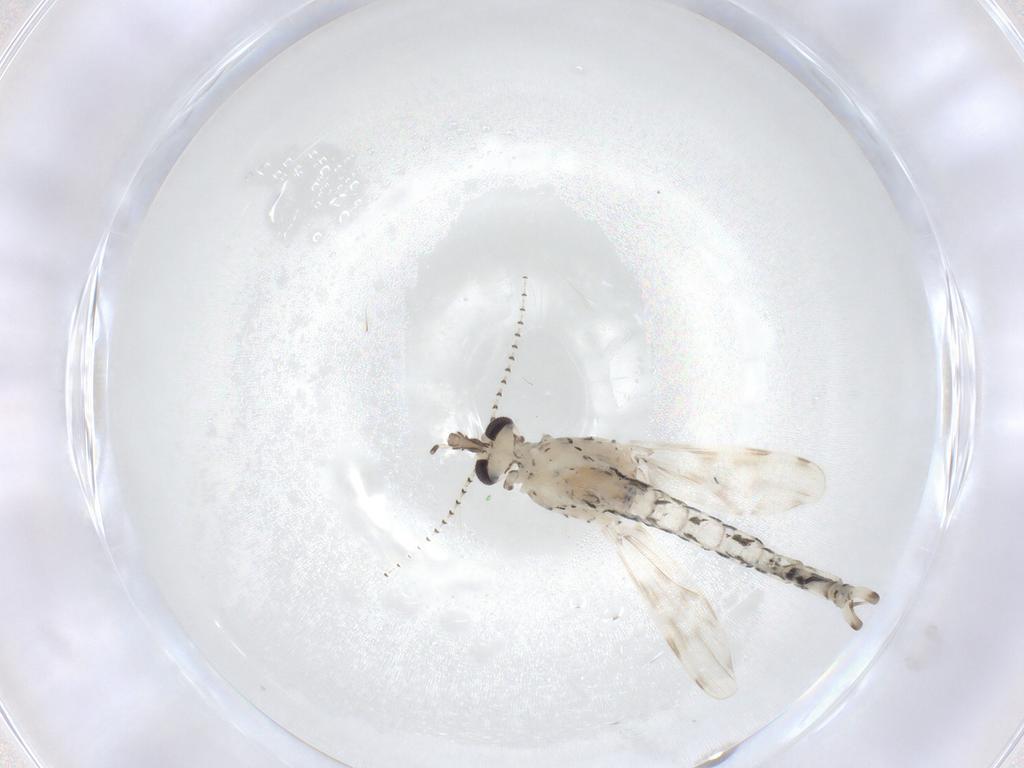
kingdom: Animalia
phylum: Arthropoda
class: Insecta
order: Diptera
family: Chaoboridae
